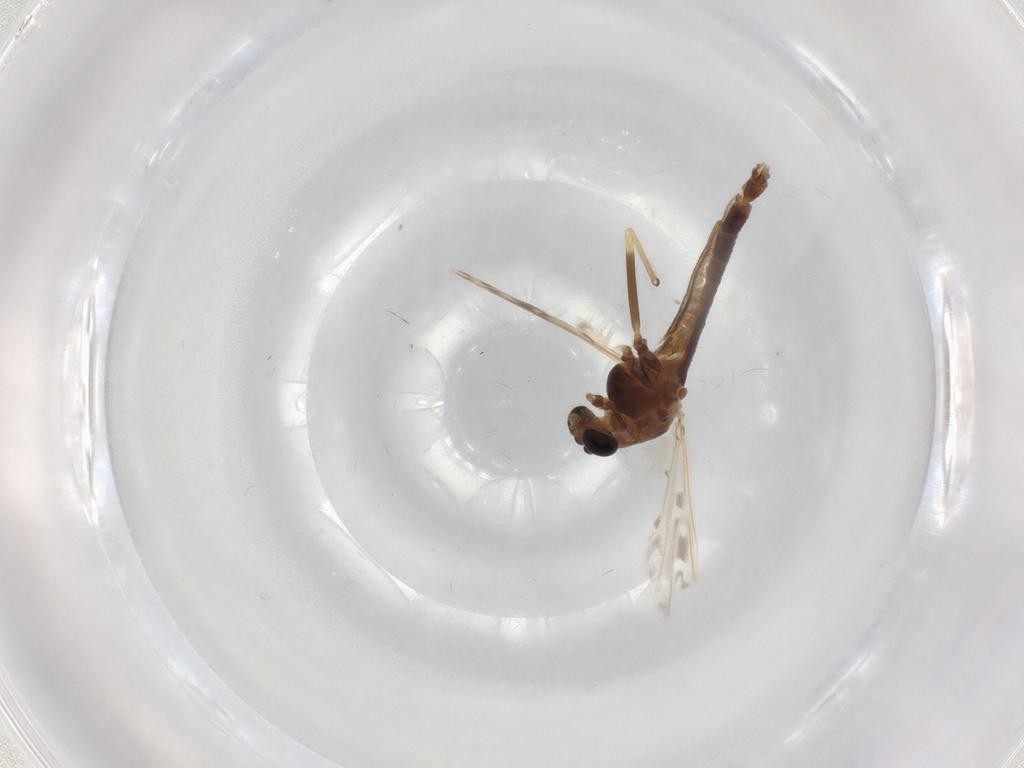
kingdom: Animalia
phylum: Arthropoda
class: Insecta
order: Diptera
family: Chironomidae
